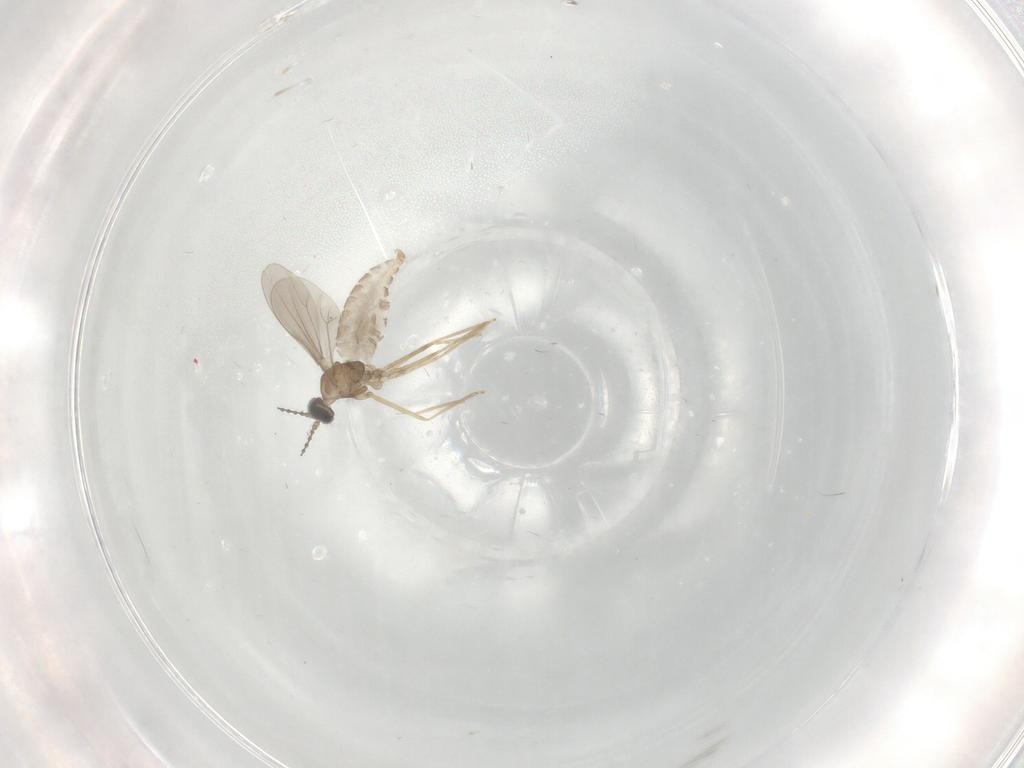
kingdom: Animalia
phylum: Arthropoda
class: Insecta
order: Diptera
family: Cecidomyiidae
